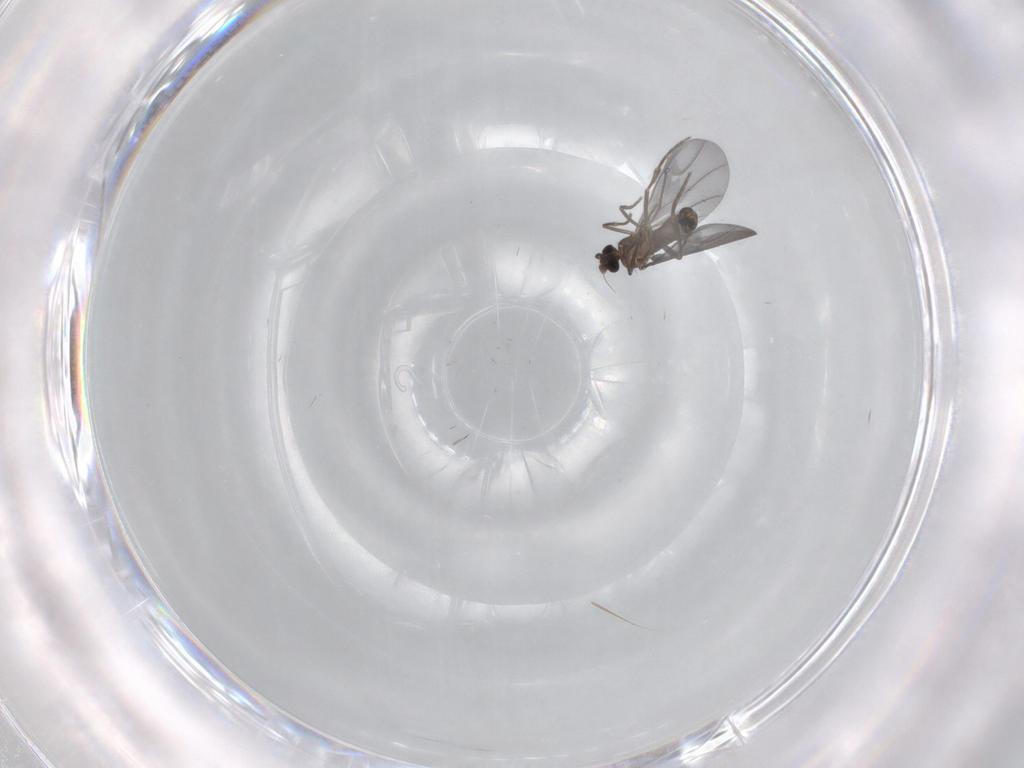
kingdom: Animalia
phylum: Arthropoda
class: Insecta
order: Diptera
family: Phoridae
